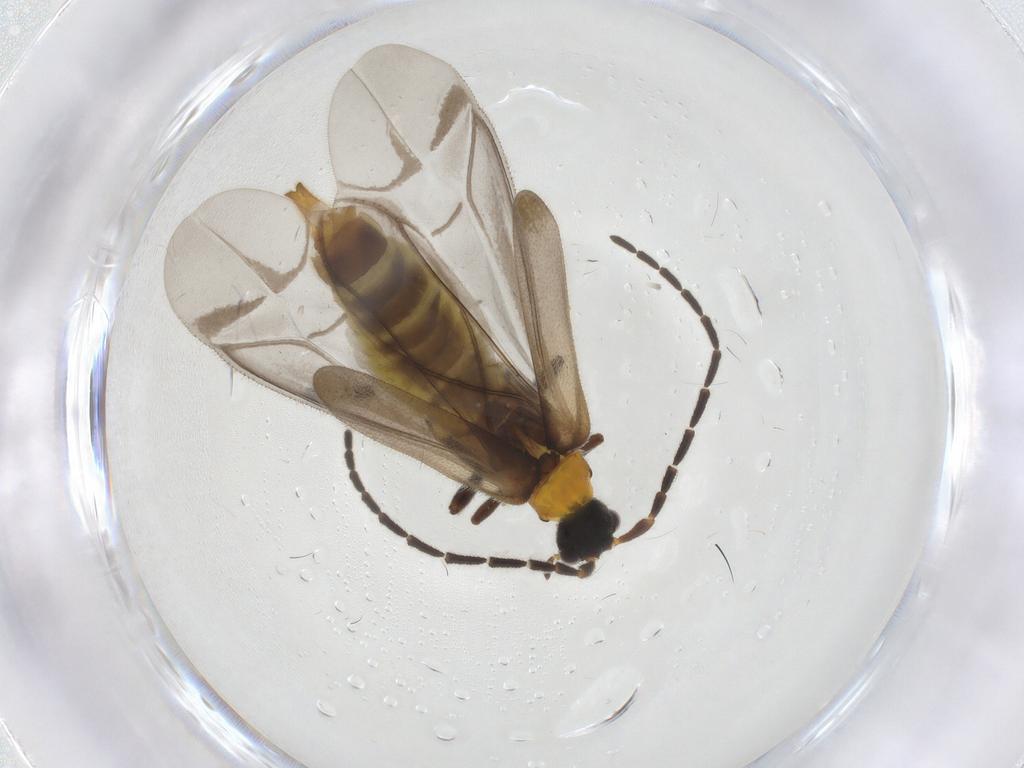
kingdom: Animalia
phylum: Arthropoda
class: Insecta
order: Coleoptera
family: Cantharidae
